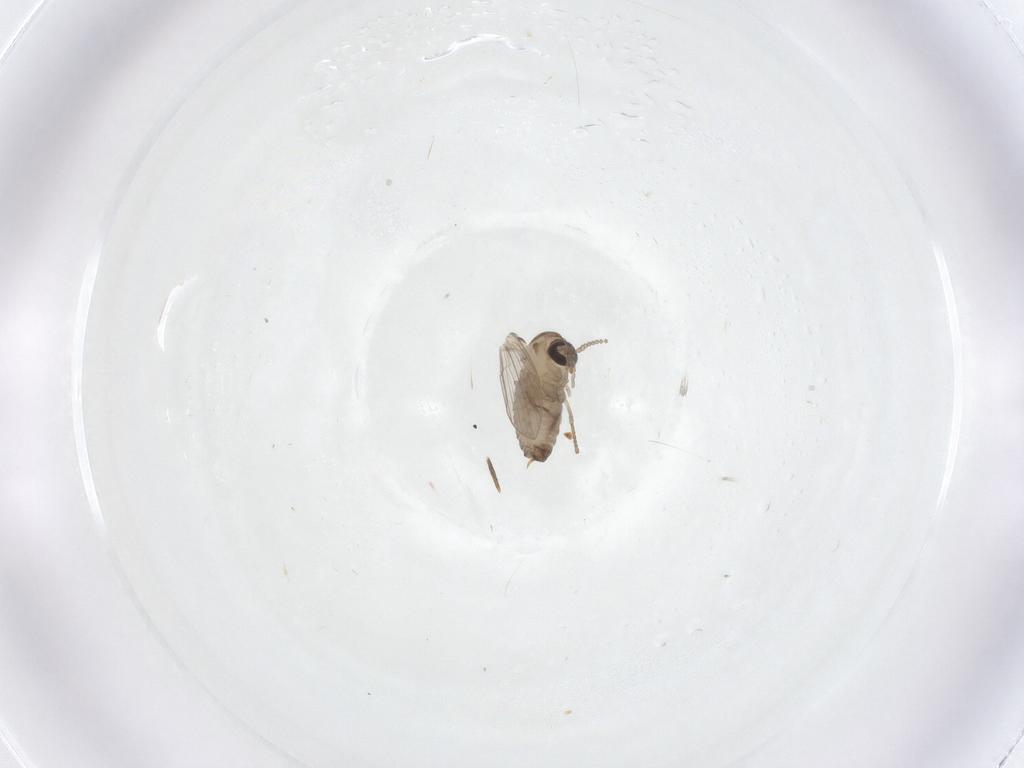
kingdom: Animalia
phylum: Arthropoda
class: Insecta
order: Diptera
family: Psychodidae
